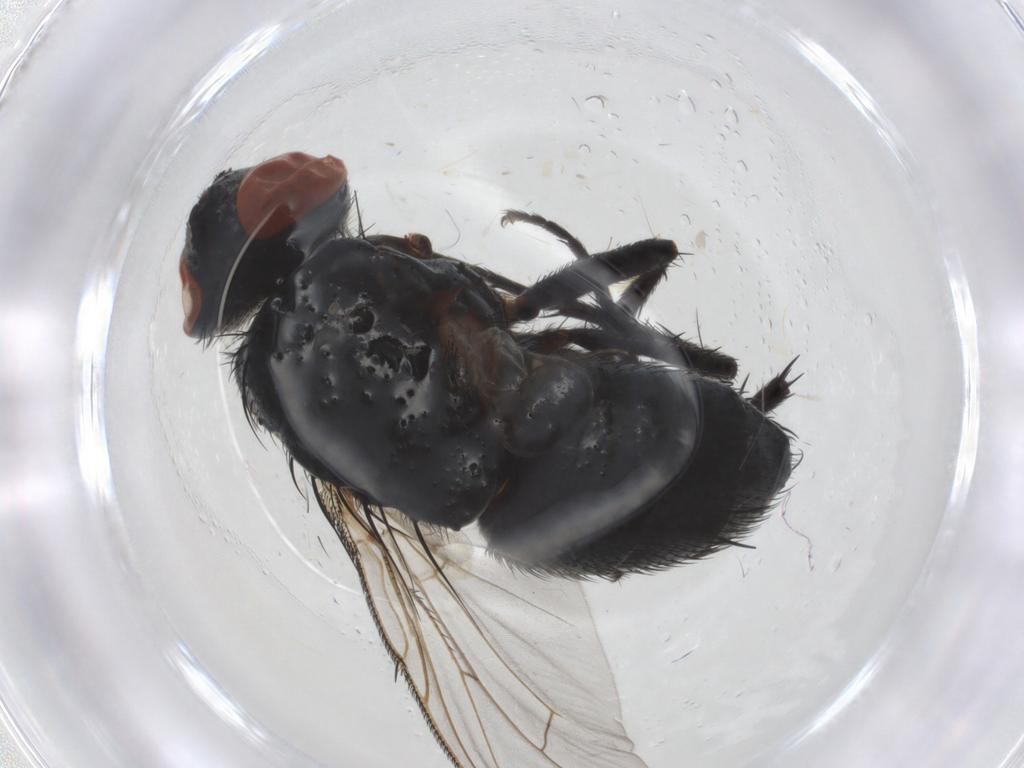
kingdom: Animalia
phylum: Arthropoda
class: Insecta
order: Diptera
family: Sarcophagidae
